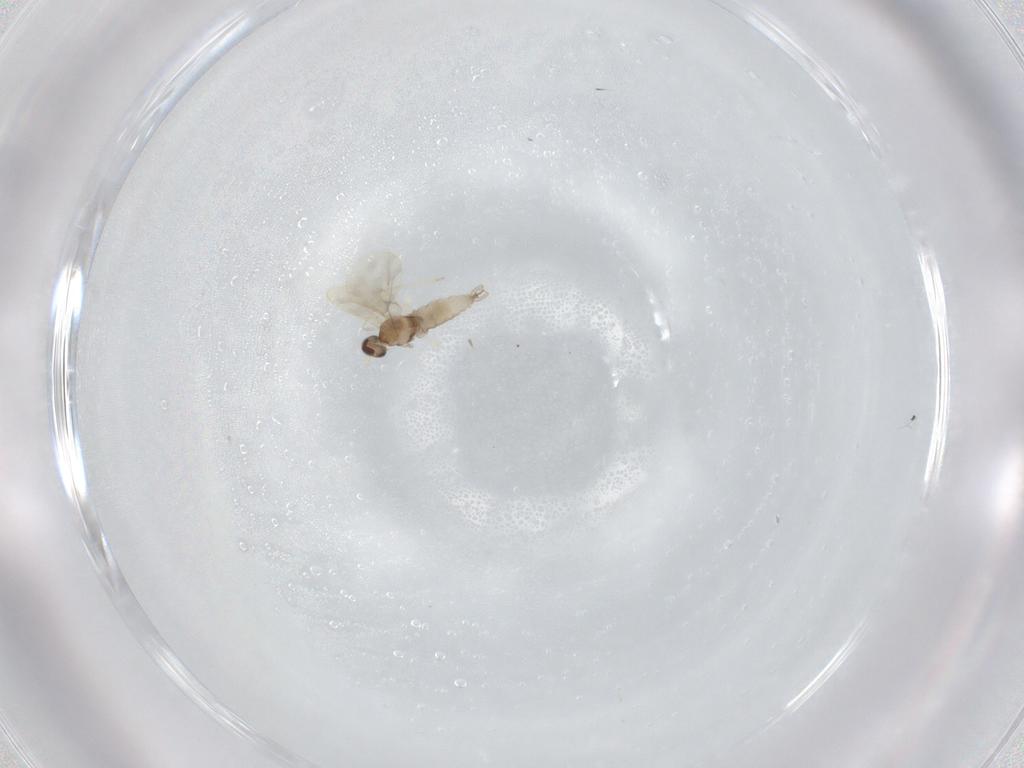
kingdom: Animalia
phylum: Arthropoda
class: Insecta
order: Diptera
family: Cecidomyiidae
